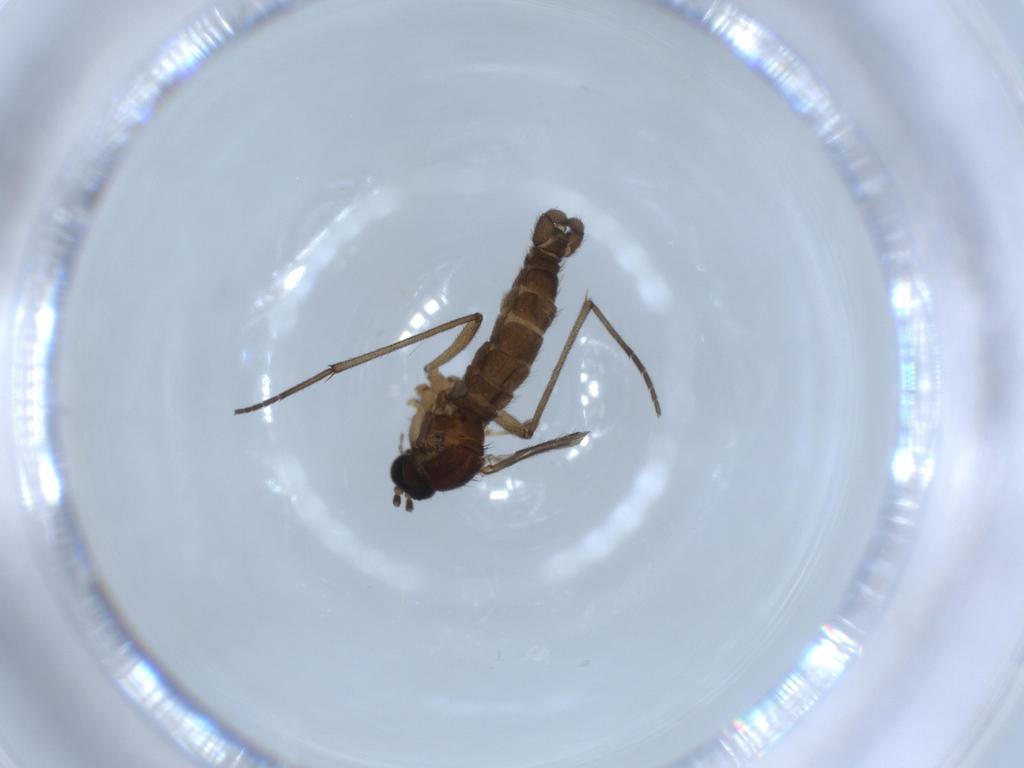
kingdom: Animalia
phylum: Arthropoda
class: Insecta
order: Diptera
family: Chironomidae
